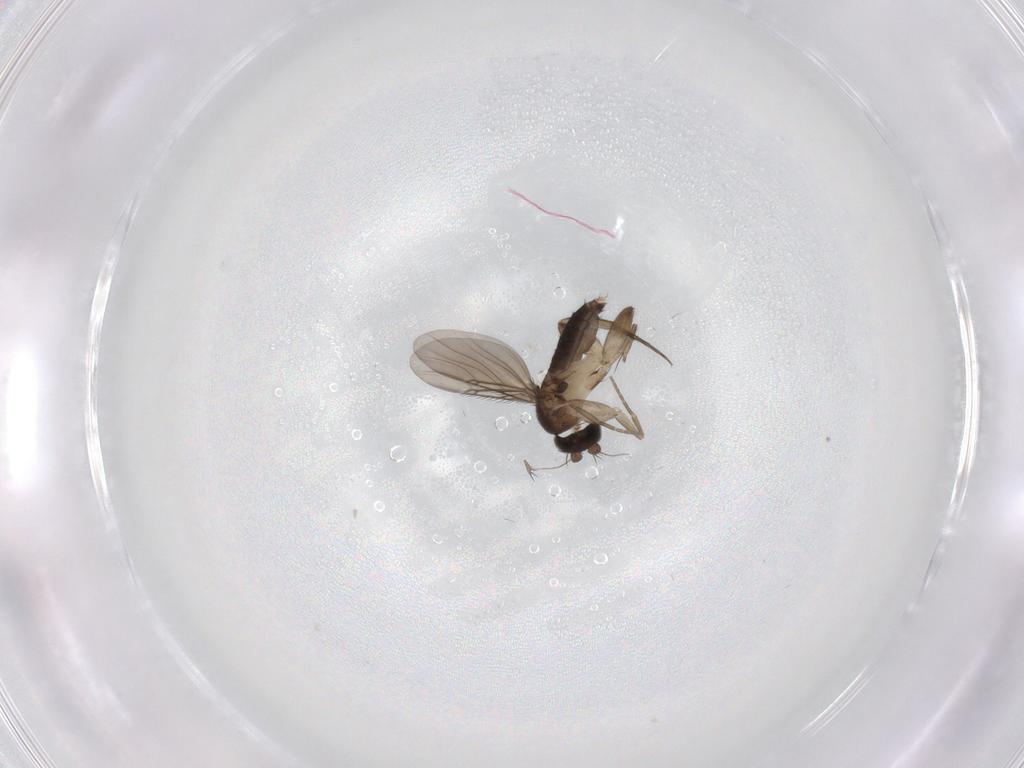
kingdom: Animalia
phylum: Arthropoda
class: Insecta
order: Diptera
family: Phoridae
